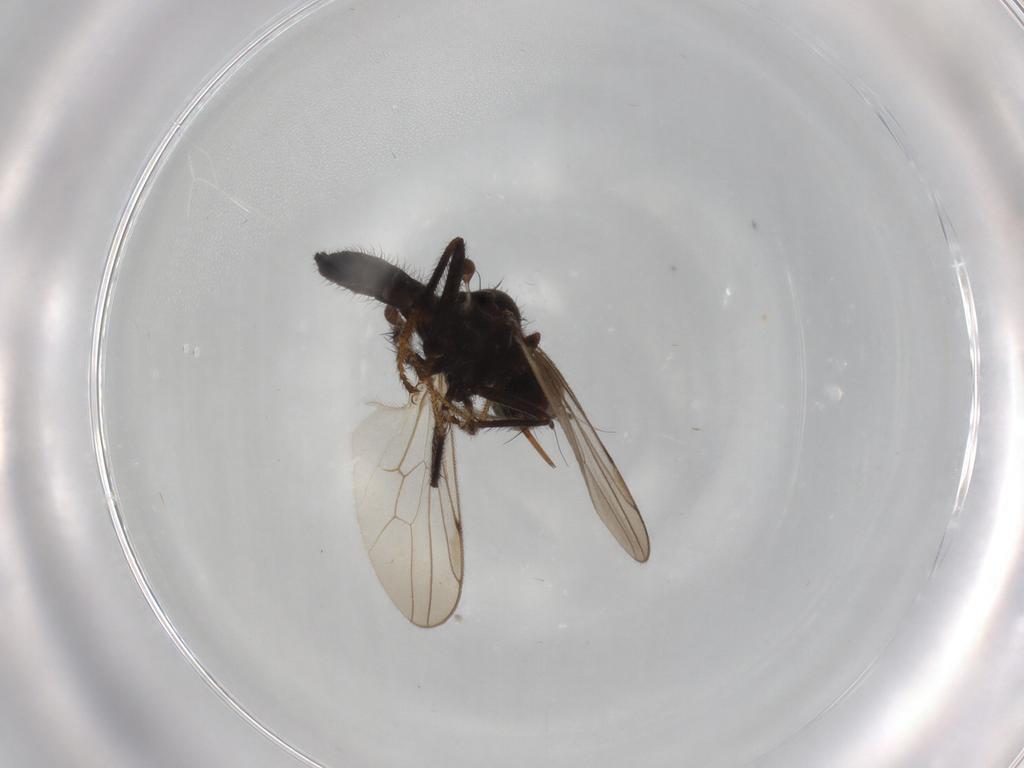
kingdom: Animalia
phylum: Arthropoda
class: Insecta
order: Diptera
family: Hybotidae
